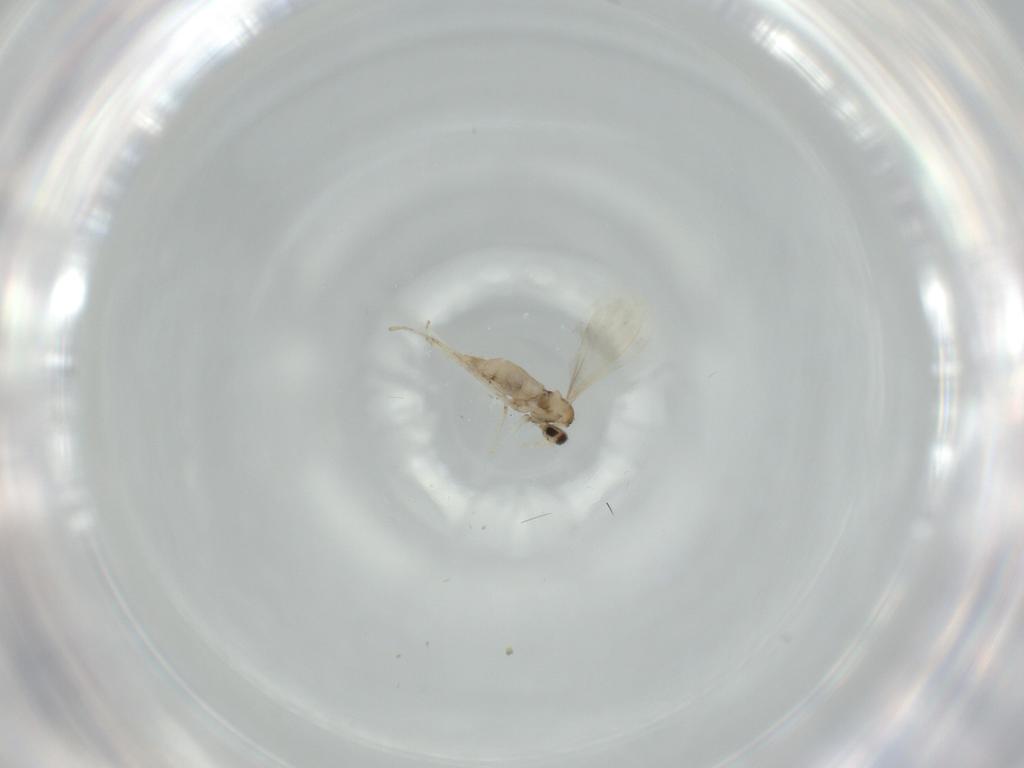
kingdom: Animalia
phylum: Arthropoda
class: Insecta
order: Diptera
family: Cecidomyiidae
